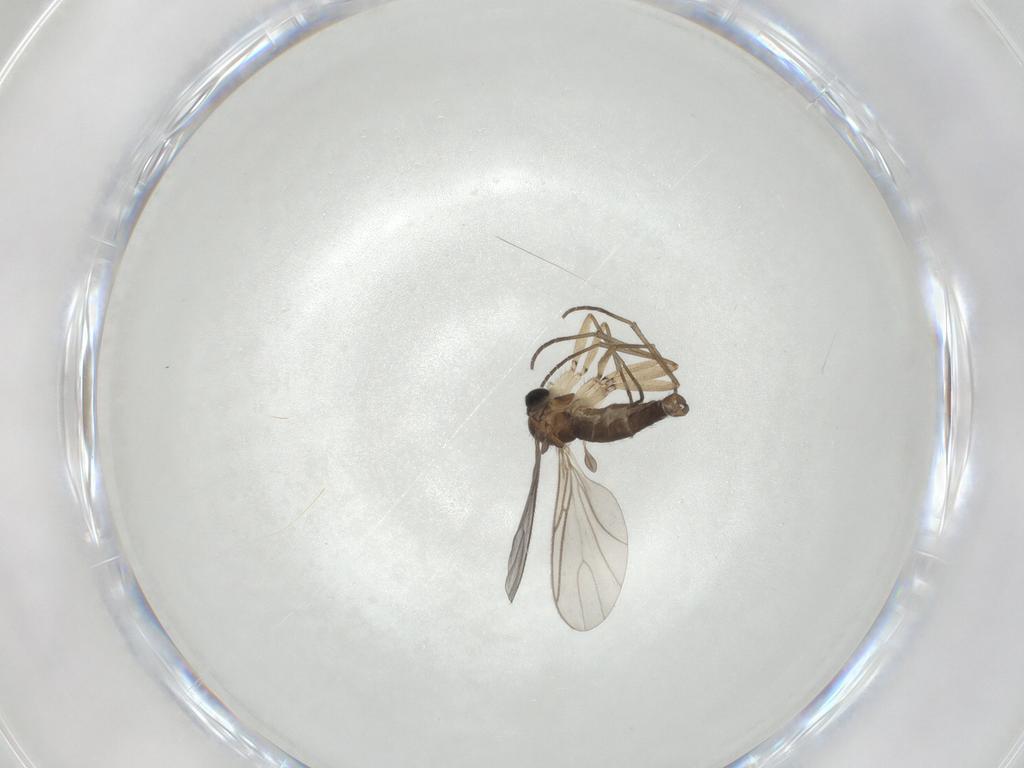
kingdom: Animalia
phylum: Arthropoda
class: Insecta
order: Diptera
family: Sciaridae
